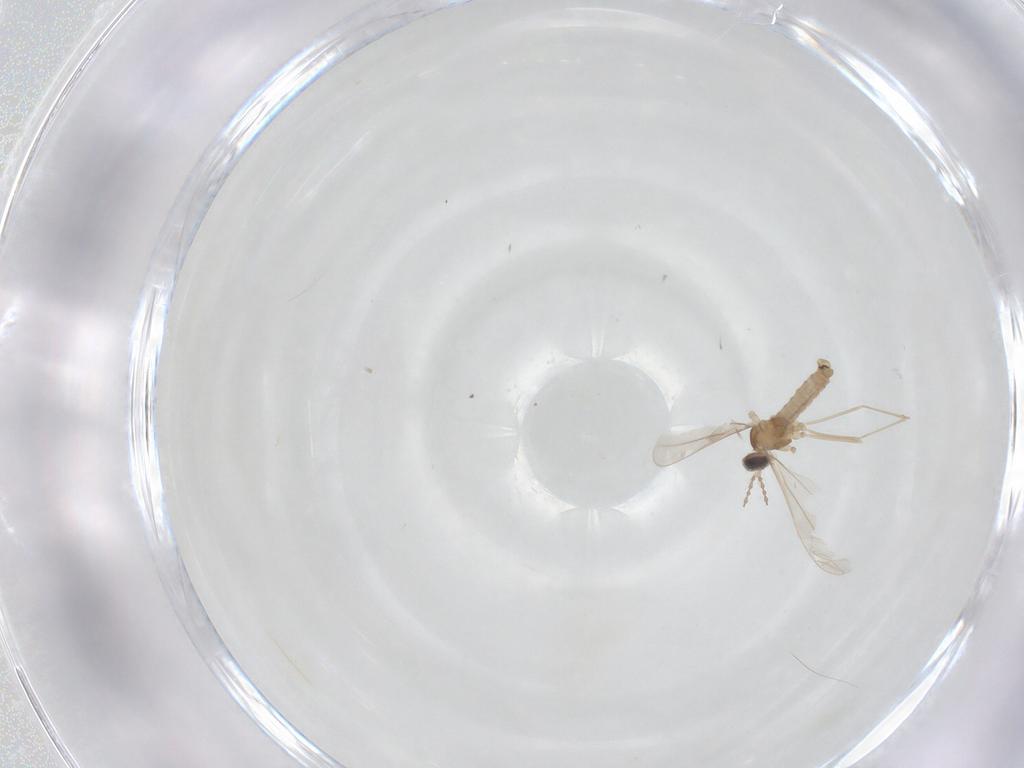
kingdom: Animalia
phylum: Arthropoda
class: Insecta
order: Diptera
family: Cecidomyiidae
